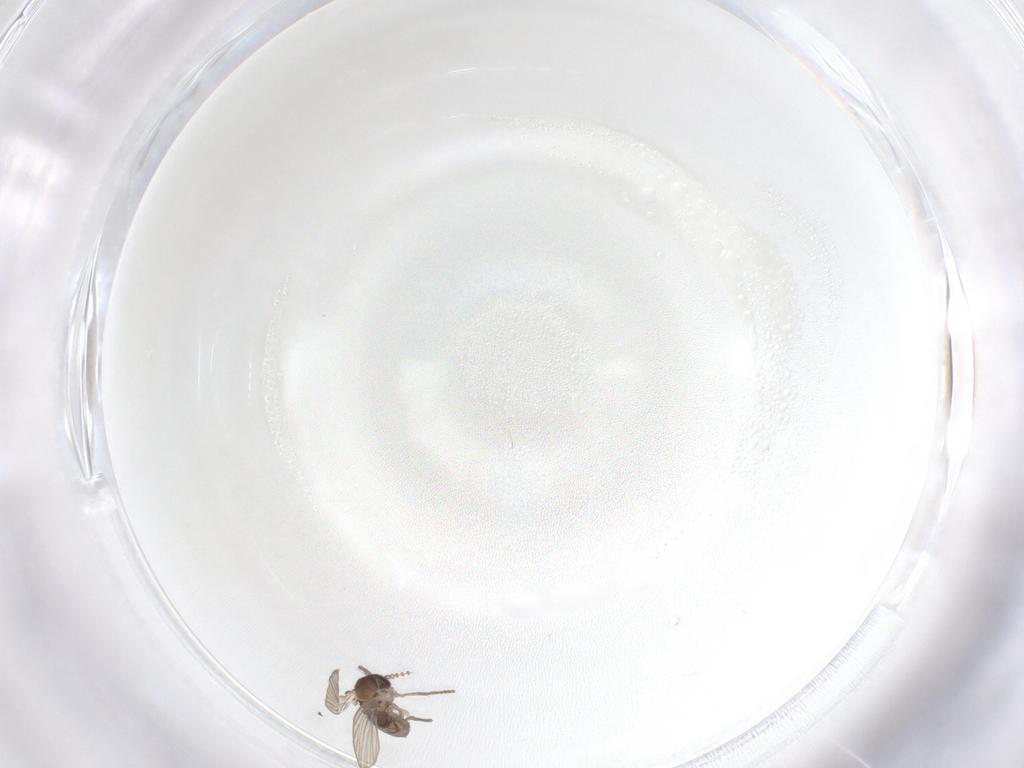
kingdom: Animalia
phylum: Arthropoda
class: Insecta
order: Diptera
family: Psychodidae
